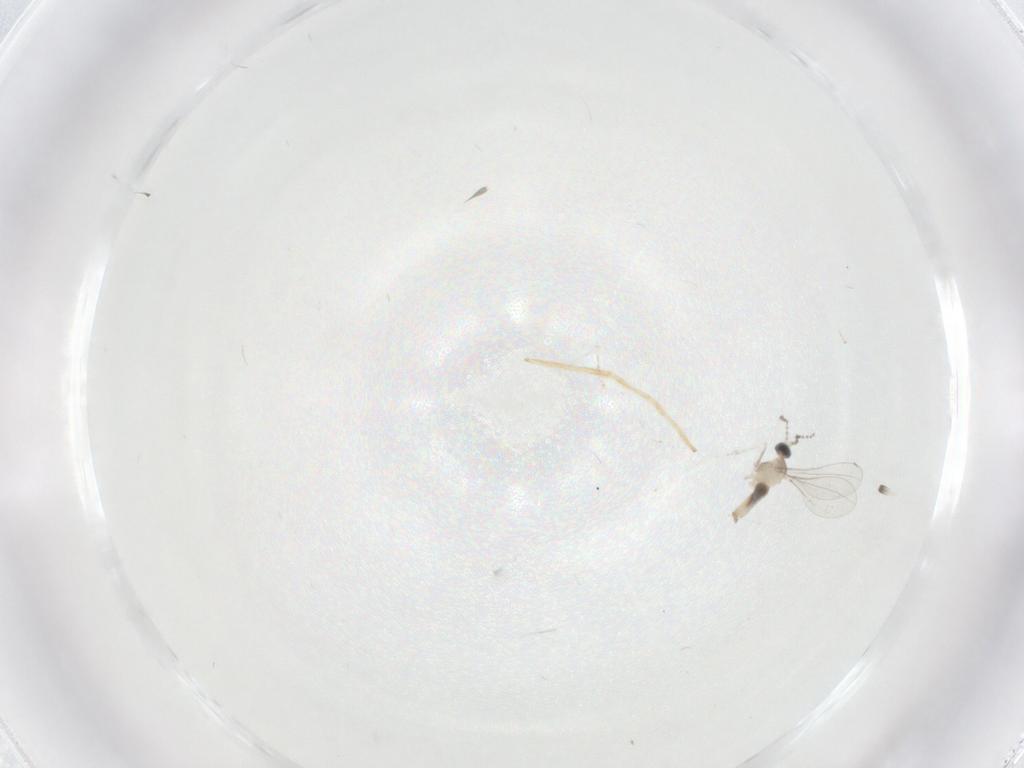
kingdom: Animalia
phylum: Arthropoda
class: Insecta
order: Diptera
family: Cecidomyiidae
